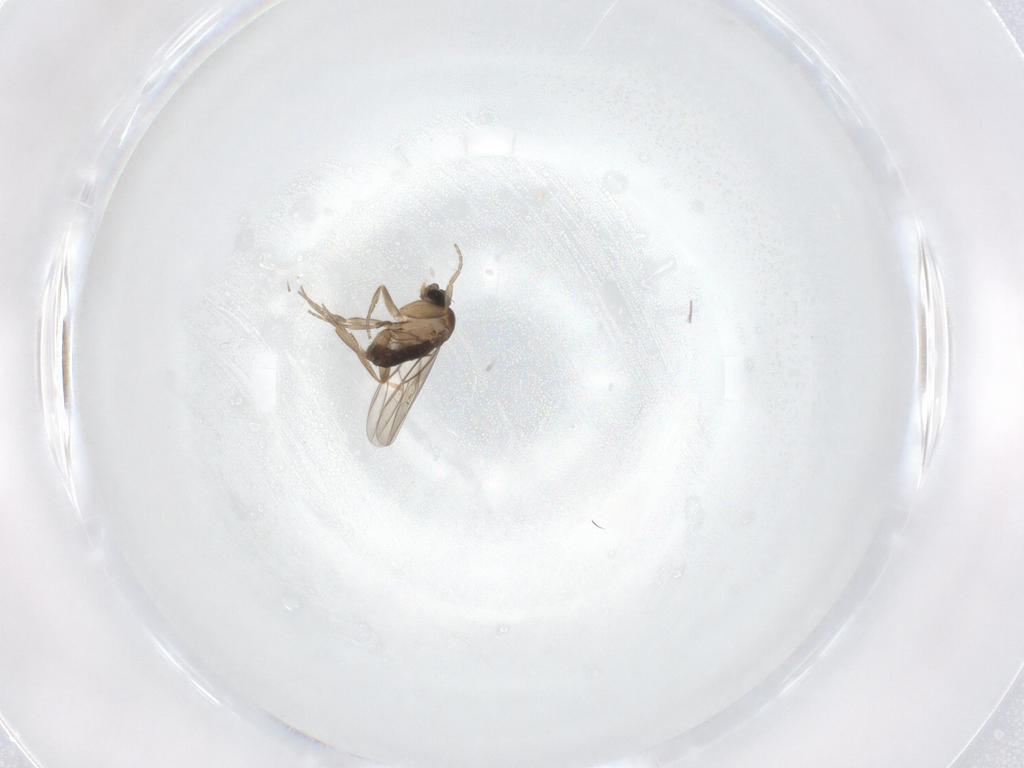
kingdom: Animalia
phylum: Arthropoda
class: Insecta
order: Diptera
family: Phoridae
